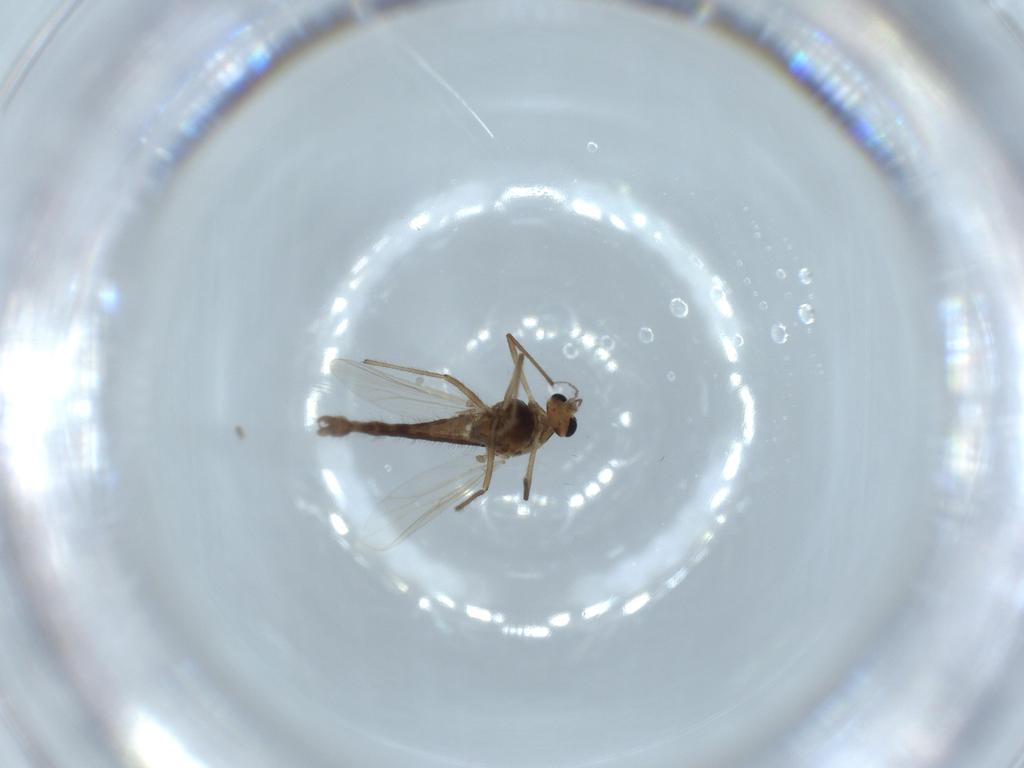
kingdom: Animalia
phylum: Arthropoda
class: Insecta
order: Diptera
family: Chironomidae
